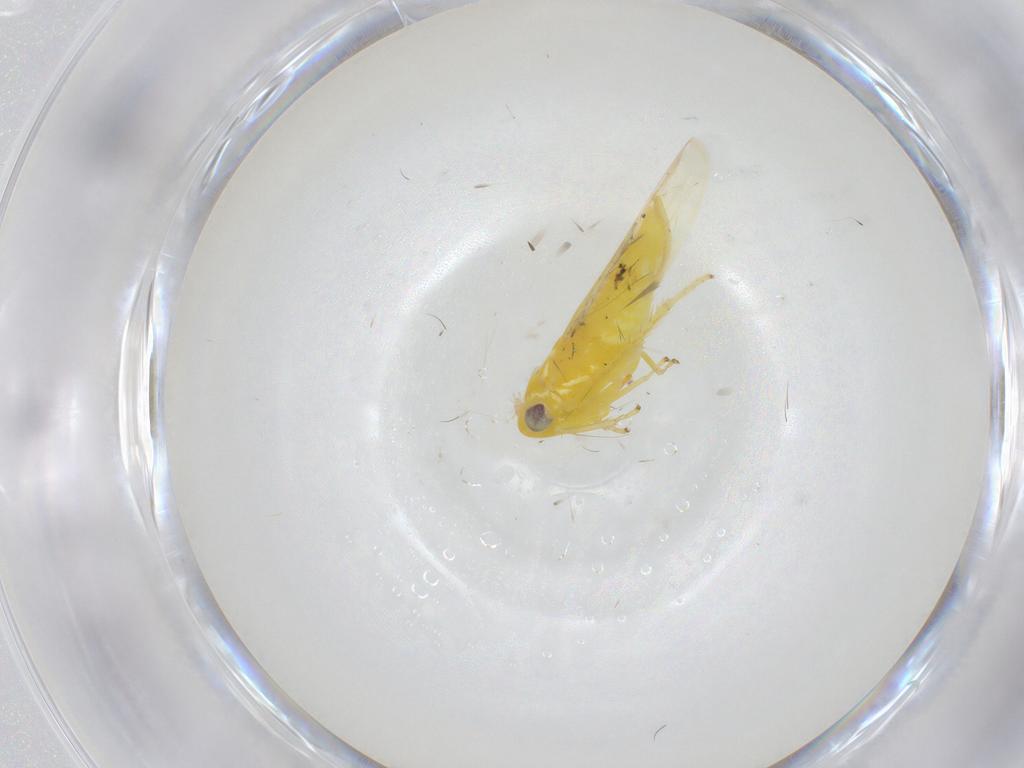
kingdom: Animalia
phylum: Arthropoda
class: Insecta
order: Hemiptera
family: Cicadellidae
